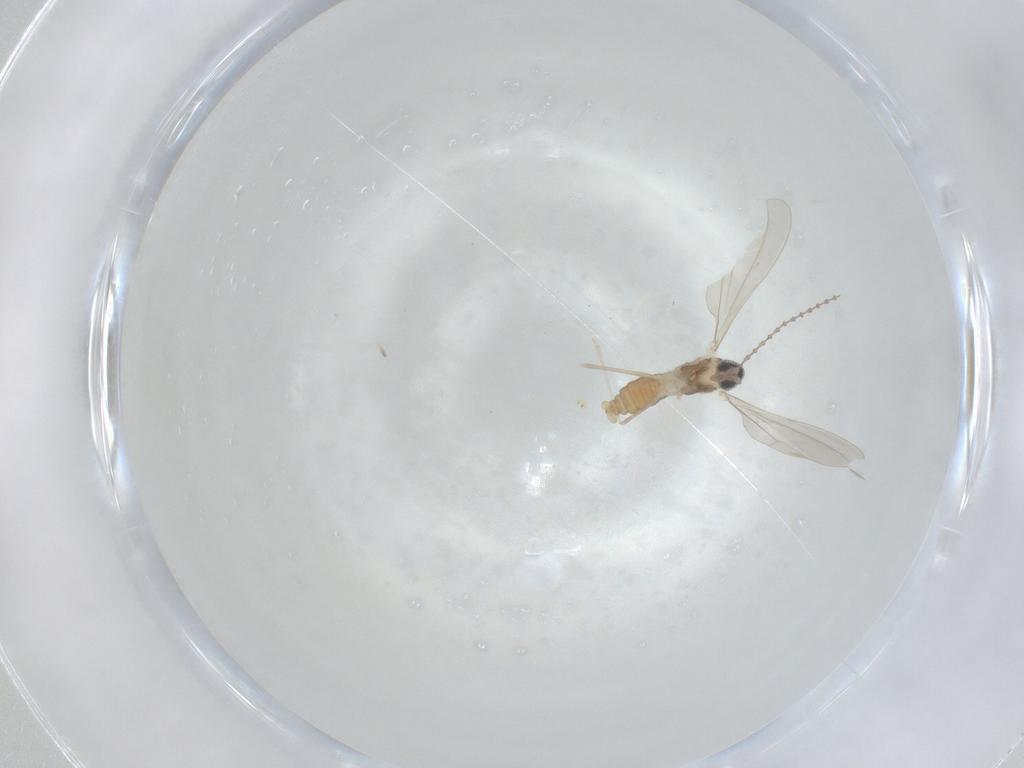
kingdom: Animalia
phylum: Arthropoda
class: Insecta
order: Diptera
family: Cecidomyiidae
